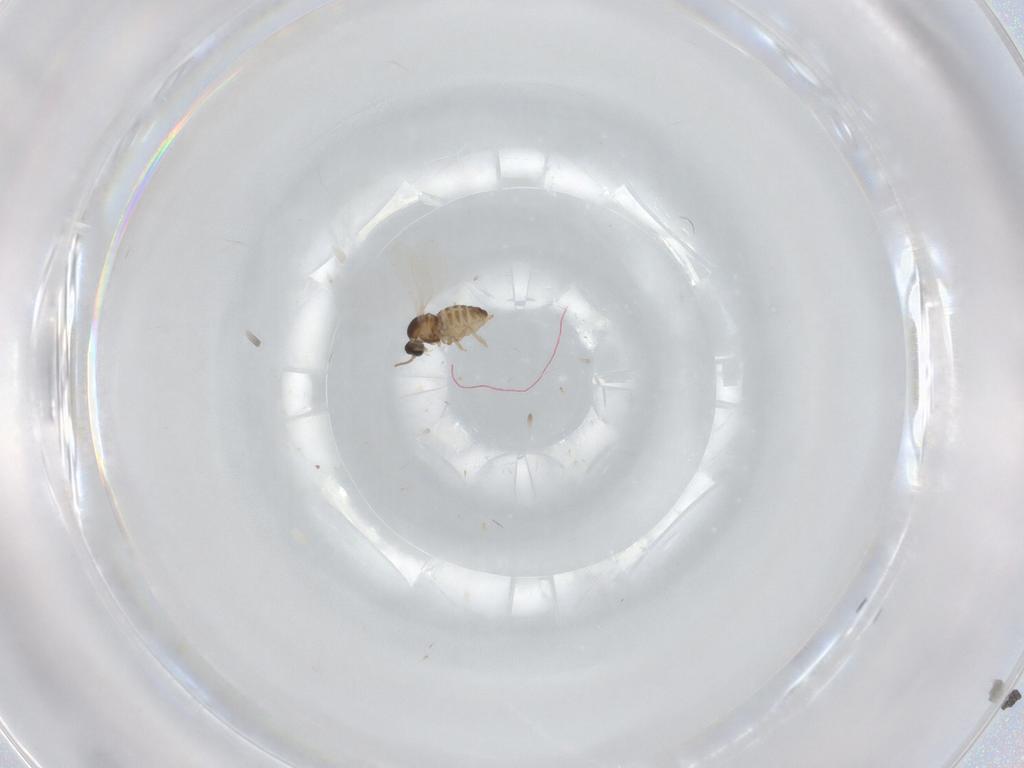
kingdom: Animalia
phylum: Arthropoda
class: Insecta
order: Diptera
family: Cecidomyiidae
